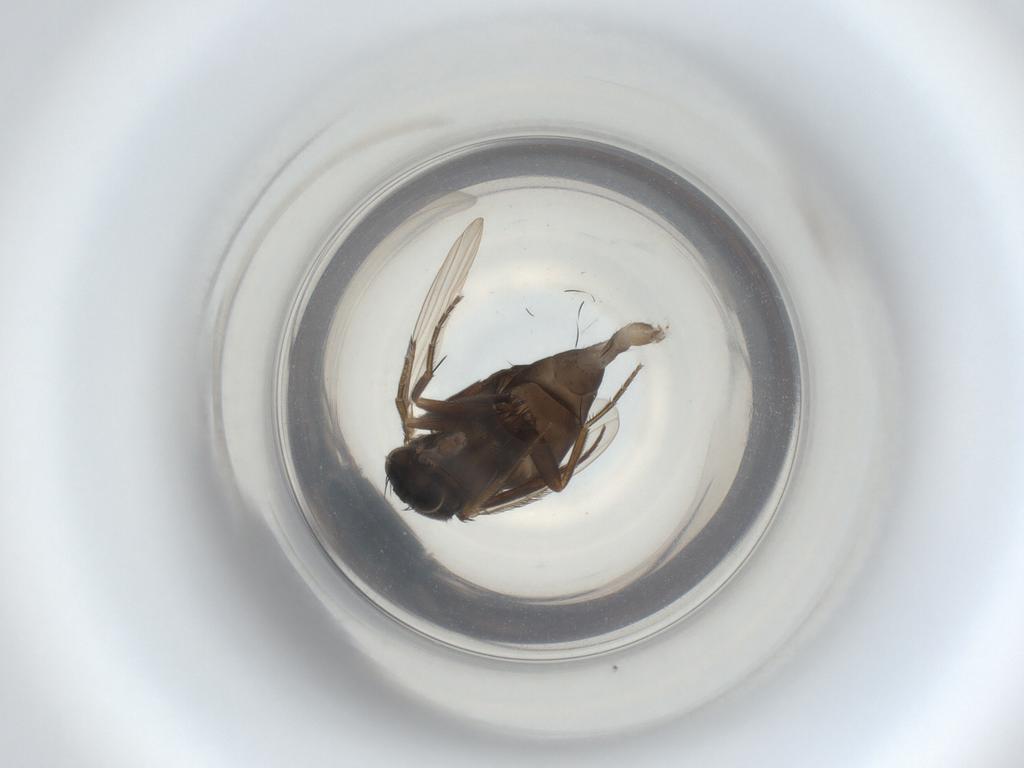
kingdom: Animalia
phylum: Arthropoda
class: Insecta
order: Diptera
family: Phoridae
